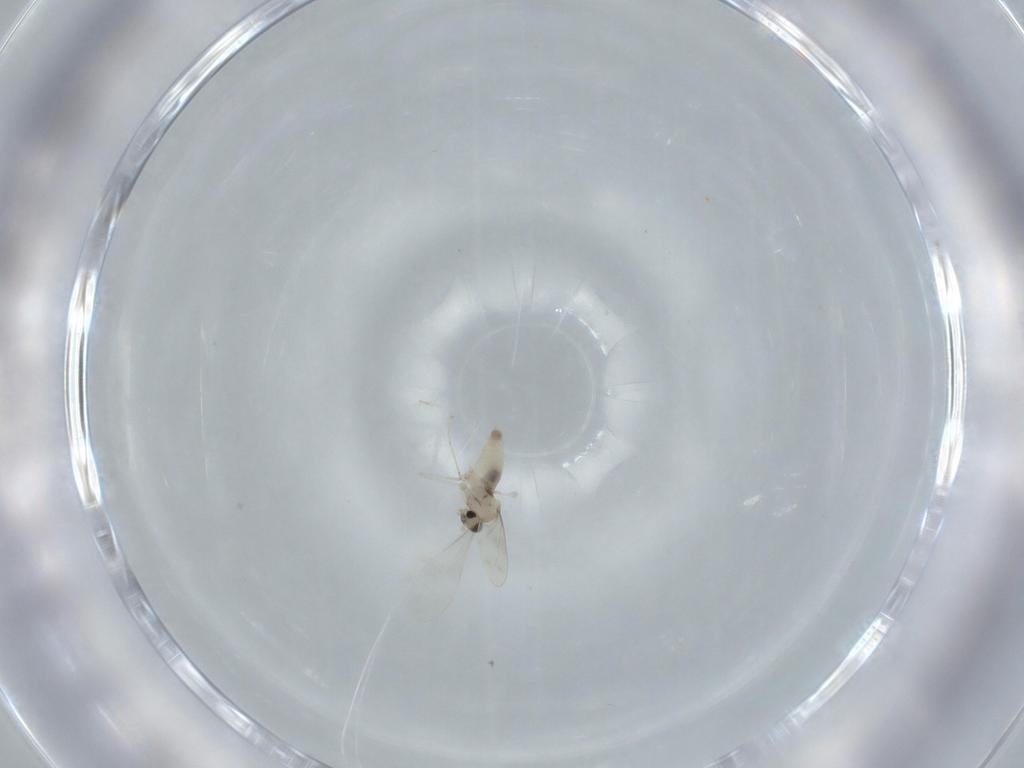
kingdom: Animalia
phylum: Arthropoda
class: Insecta
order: Diptera
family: Cecidomyiidae
